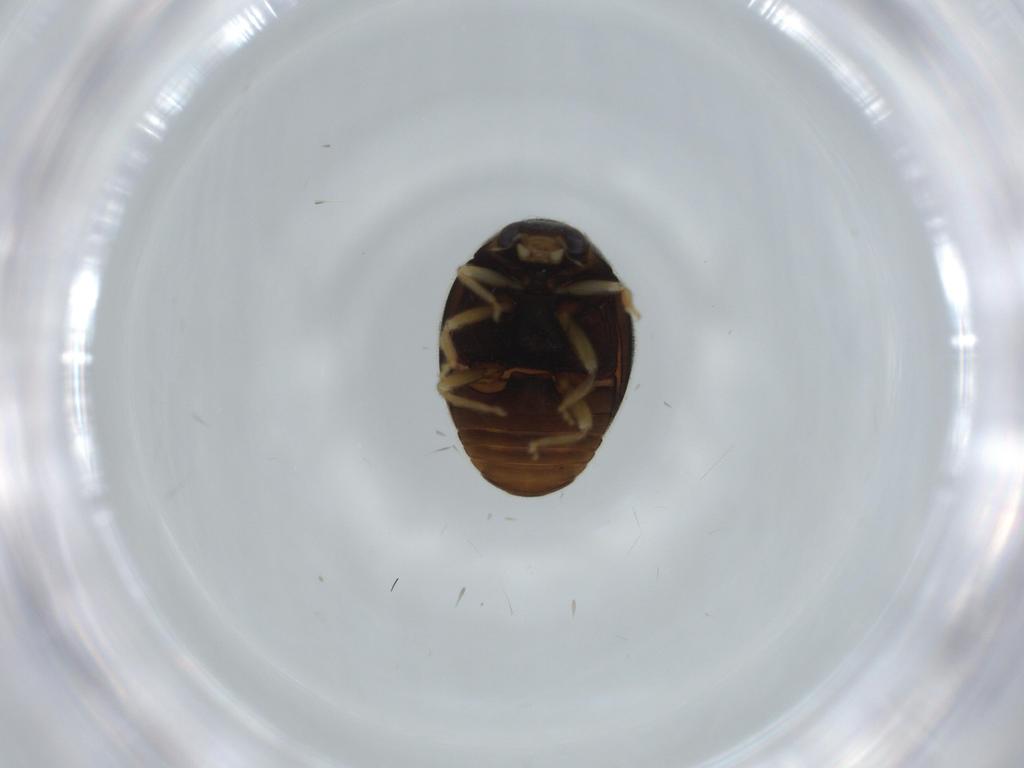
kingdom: Animalia
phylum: Arthropoda
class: Insecta
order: Coleoptera
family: Coccinellidae
